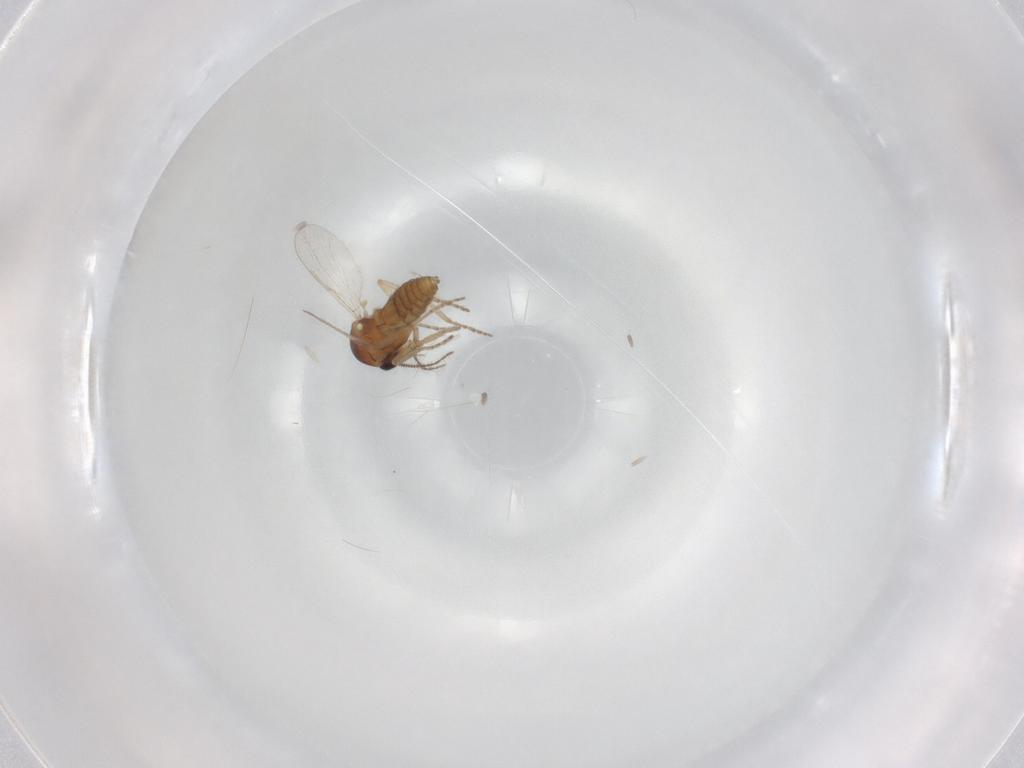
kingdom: Animalia
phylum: Arthropoda
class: Insecta
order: Diptera
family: Ceratopogonidae
